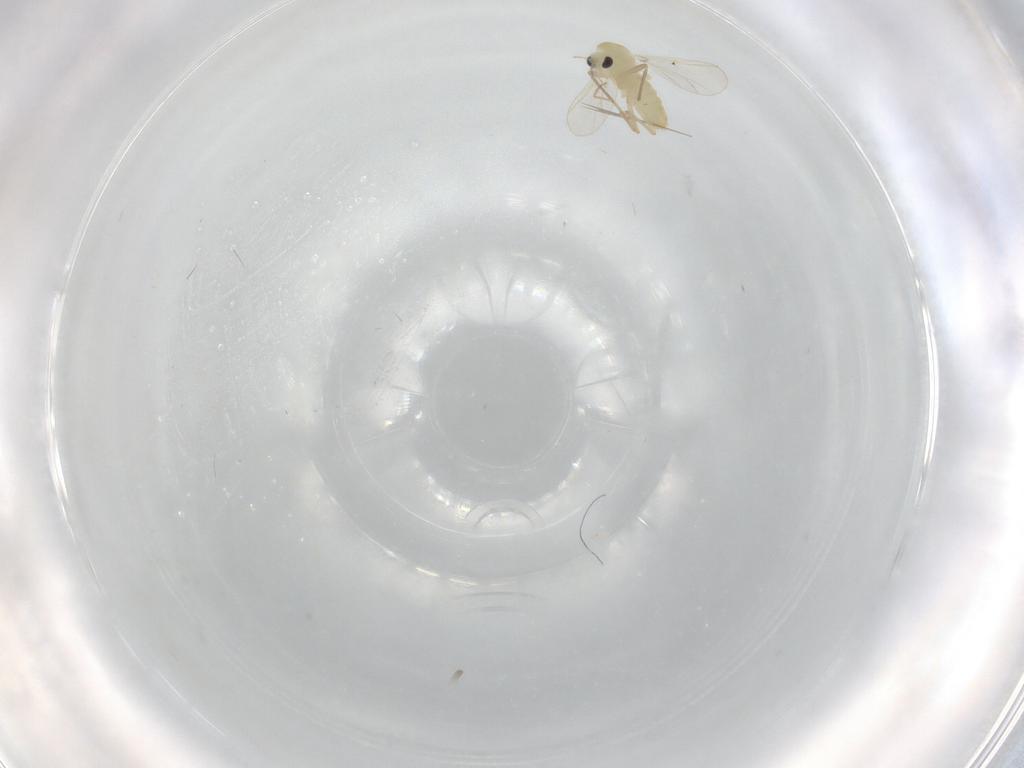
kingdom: Animalia
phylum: Arthropoda
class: Insecta
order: Diptera
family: Chironomidae
